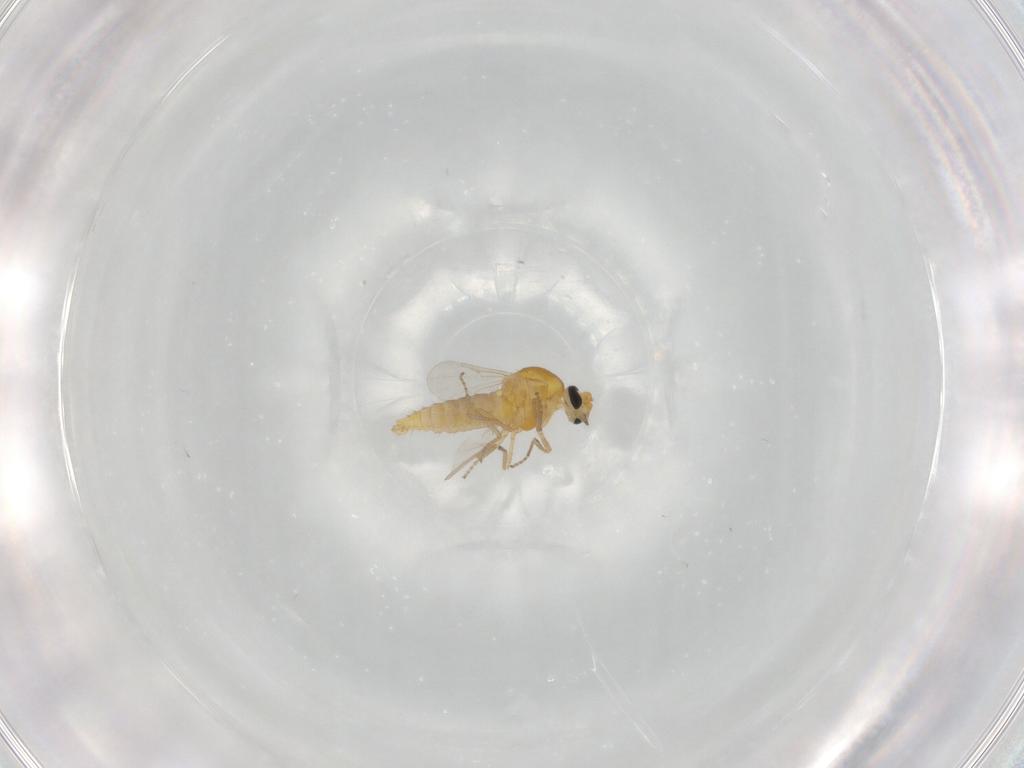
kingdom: Animalia
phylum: Arthropoda
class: Insecta
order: Diptera
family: Ceratopogonidae
